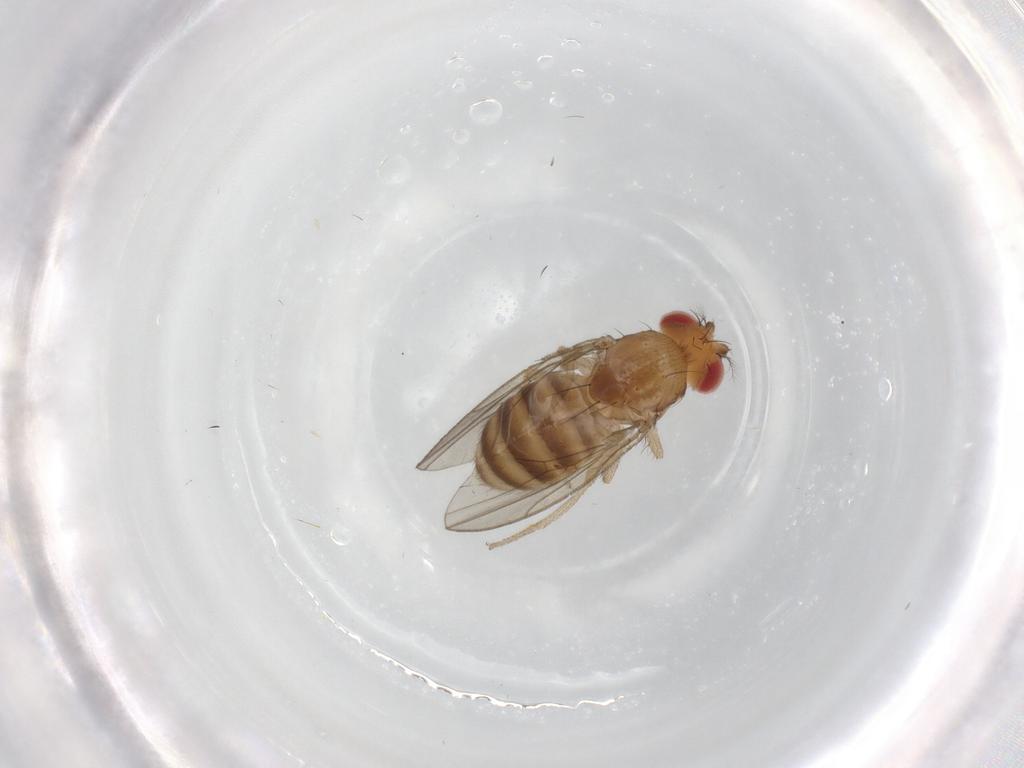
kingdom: Animalia
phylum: Arthropoda
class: Insecta
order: Diptera
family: Drosophilidae
